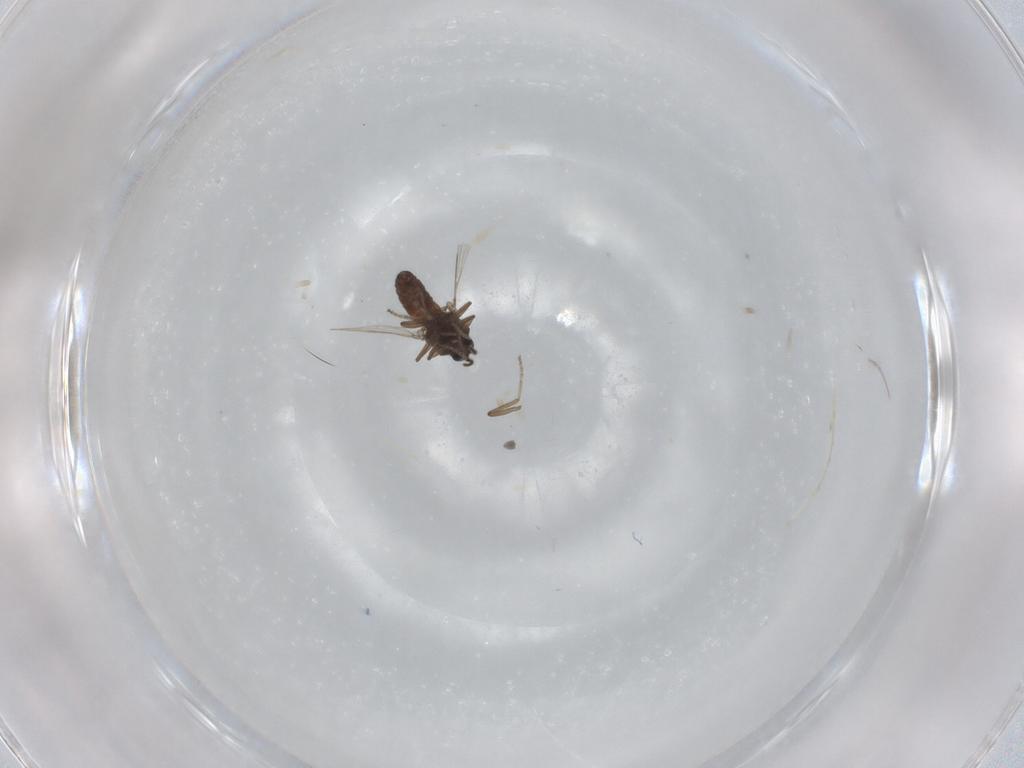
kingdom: Animalia
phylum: Arthropoda
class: Insecta
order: Diptera
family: Ceratopogonidae
